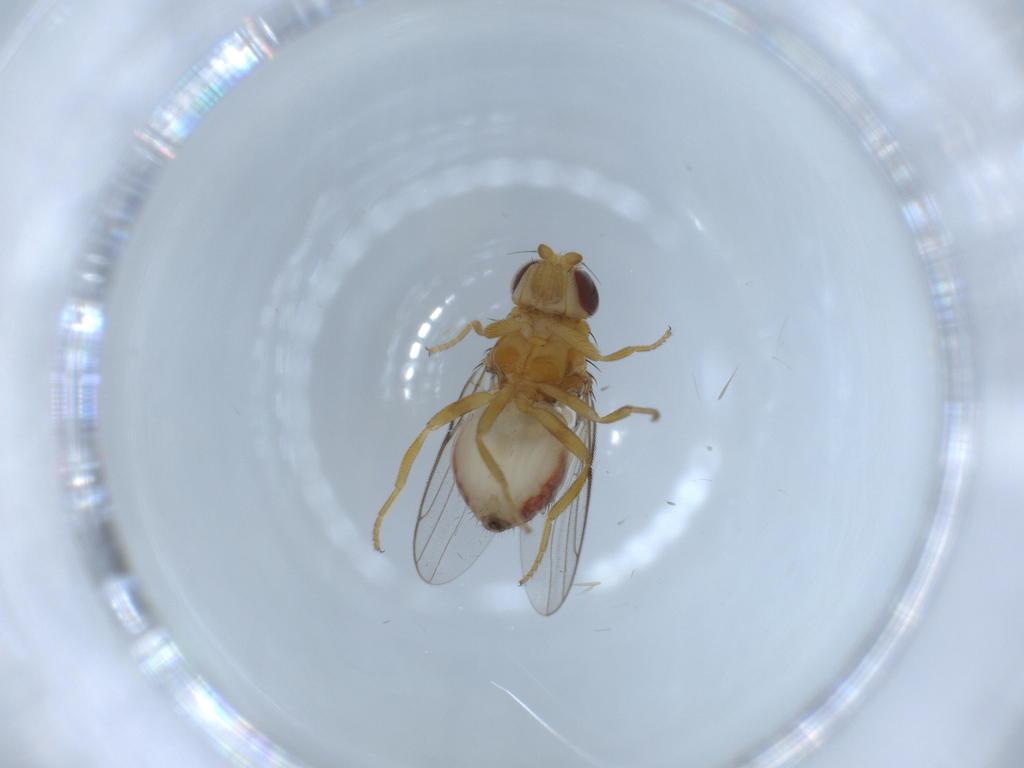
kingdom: Animalia
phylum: Arthropoda
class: Insecta
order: Diptera
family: Chloropidae
